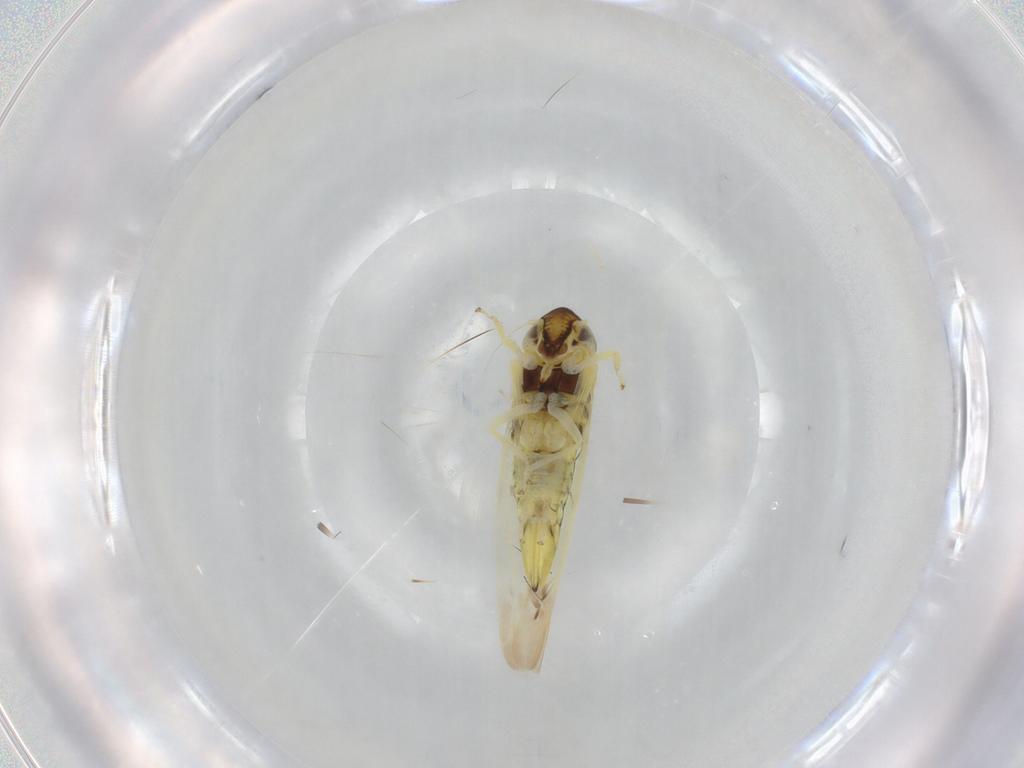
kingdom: Animalia
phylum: Arthropoda
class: Insecta
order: Hemiptera
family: Cicadellidae
